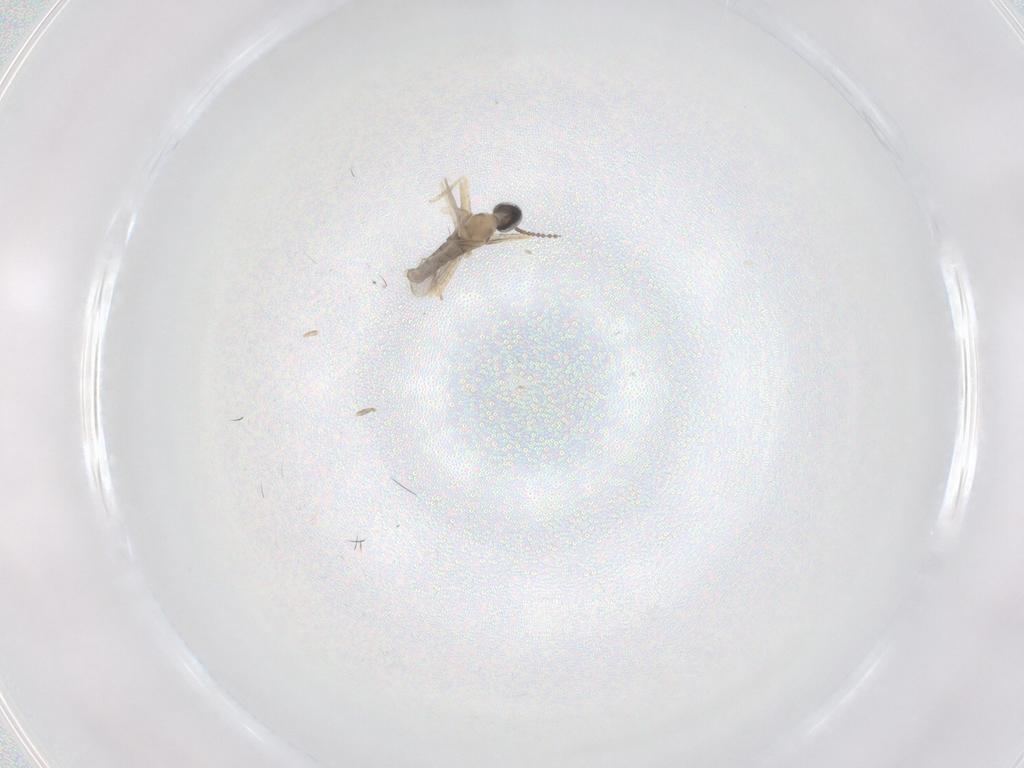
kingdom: Animalia
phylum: Arthropoda
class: Insecta
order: Diptera
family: Cecidomyiidae
